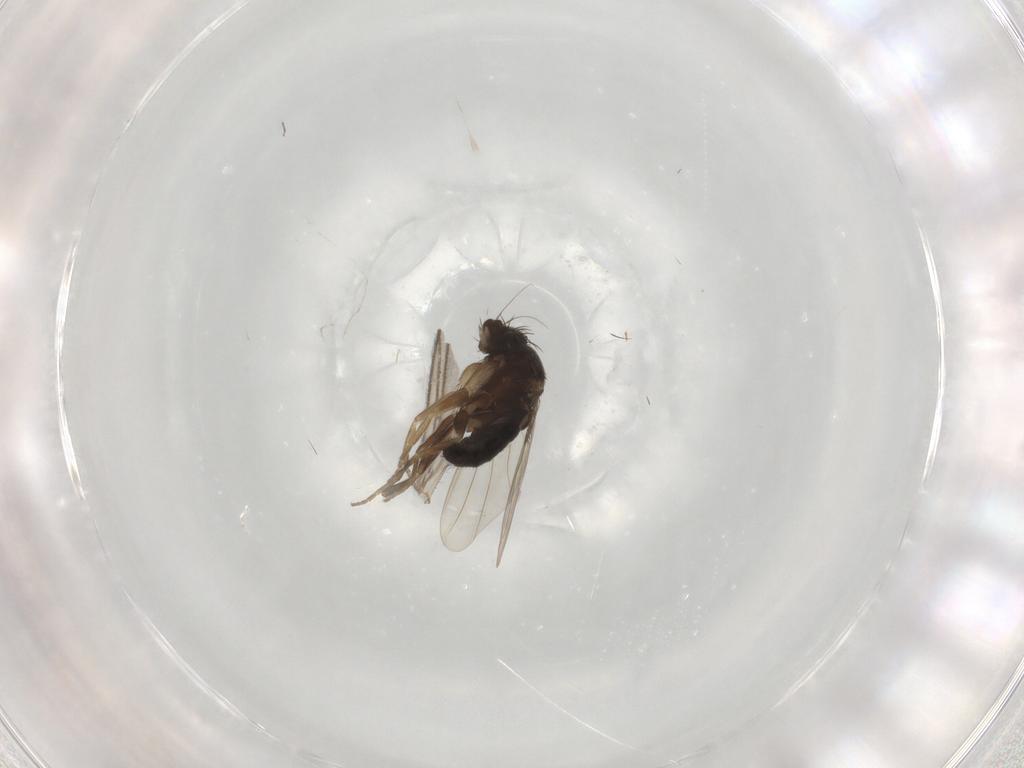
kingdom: Animalia
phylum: Arthropoda
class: Insecta
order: Diptera
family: Phoridae
